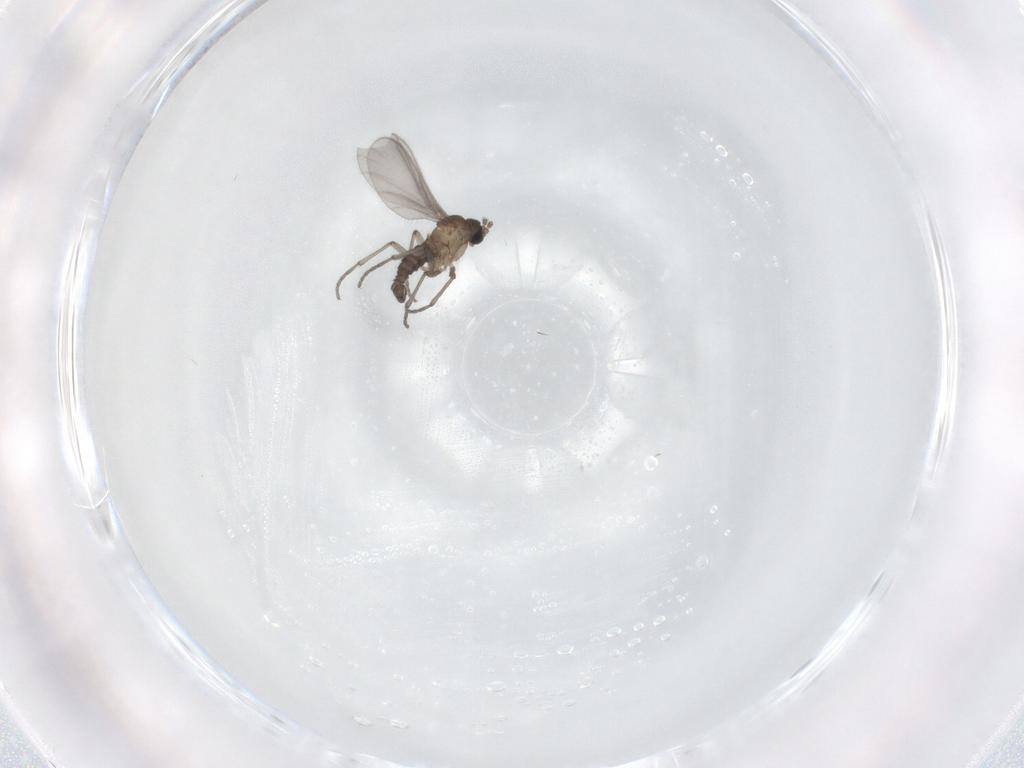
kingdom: Animalia
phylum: Arthropoda
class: Insecta
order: Diptera
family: Sciaridae
